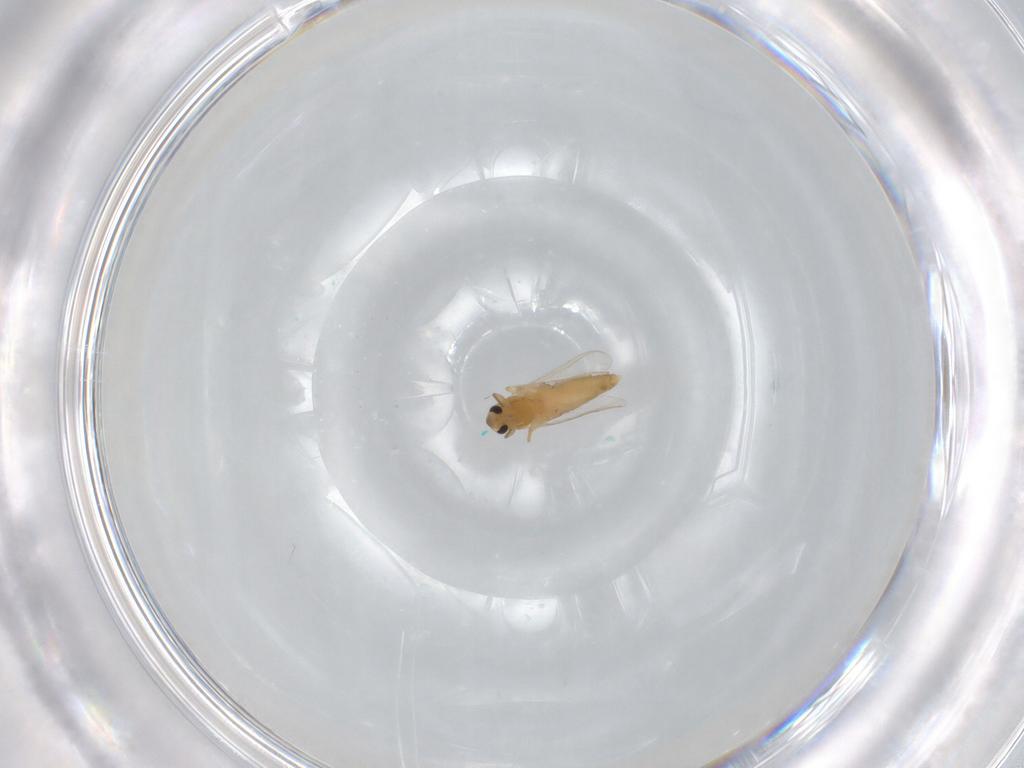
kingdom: Animalia
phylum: Arthropoda
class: Insecta
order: Diptera
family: Chironomidae
